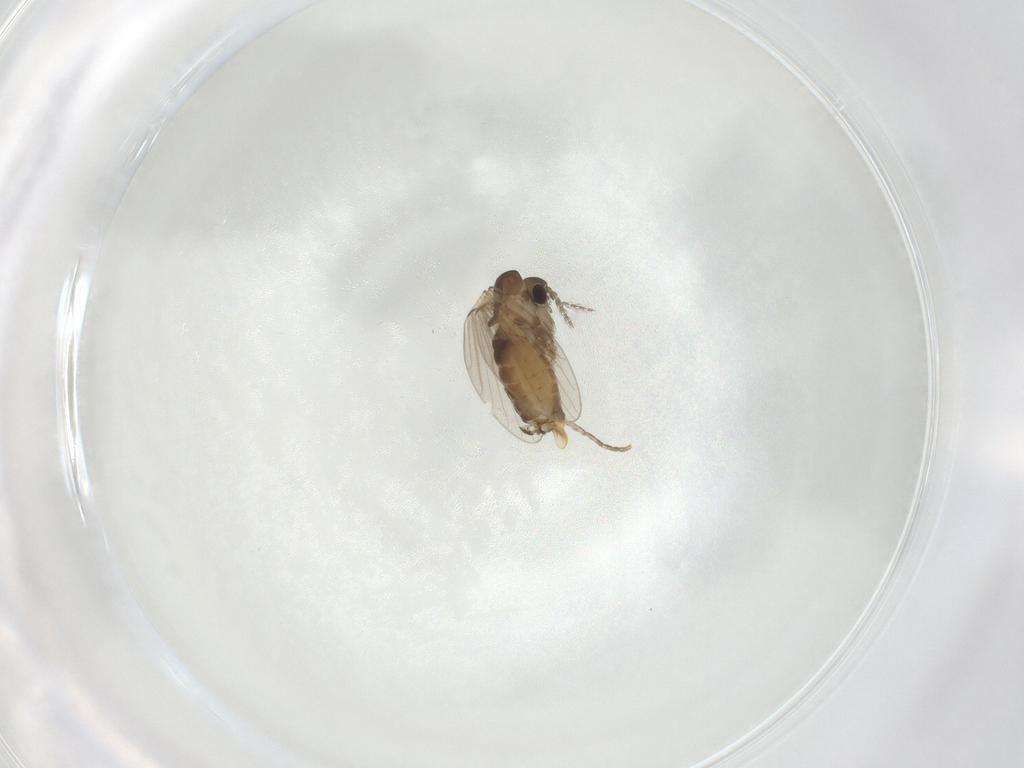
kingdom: Animalia
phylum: Arthropoda
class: Insecta
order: Diptera
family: Psychodidae
